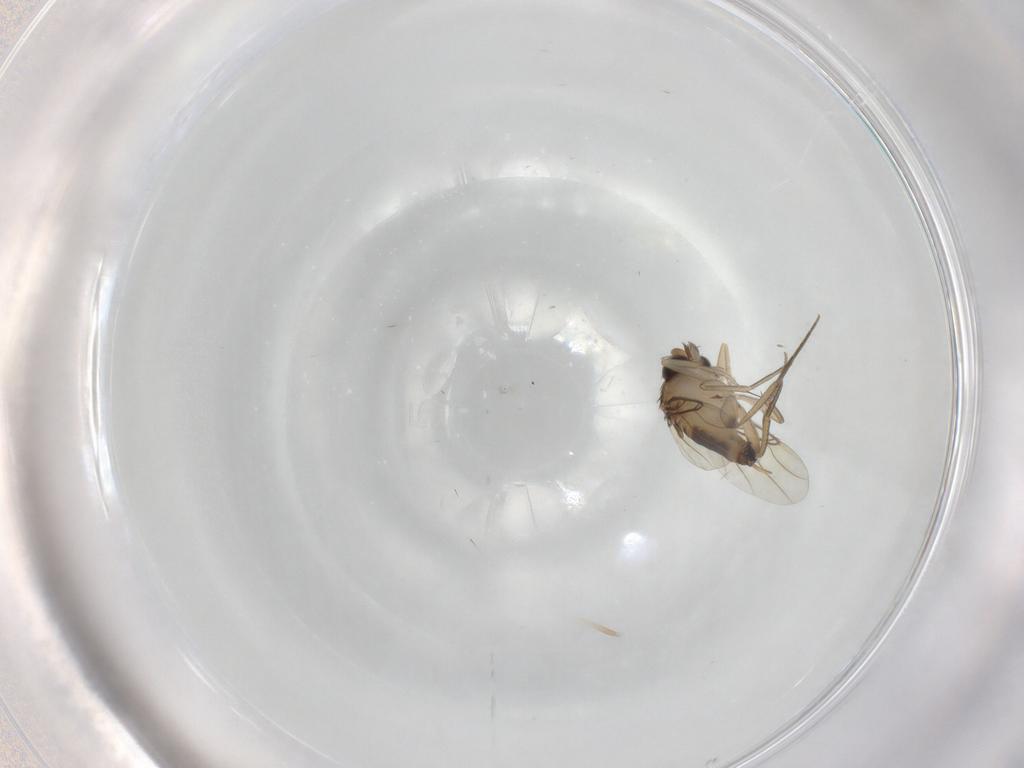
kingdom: Animalia
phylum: Arthropoda
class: Insecta
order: Diptera
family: Phoridae
